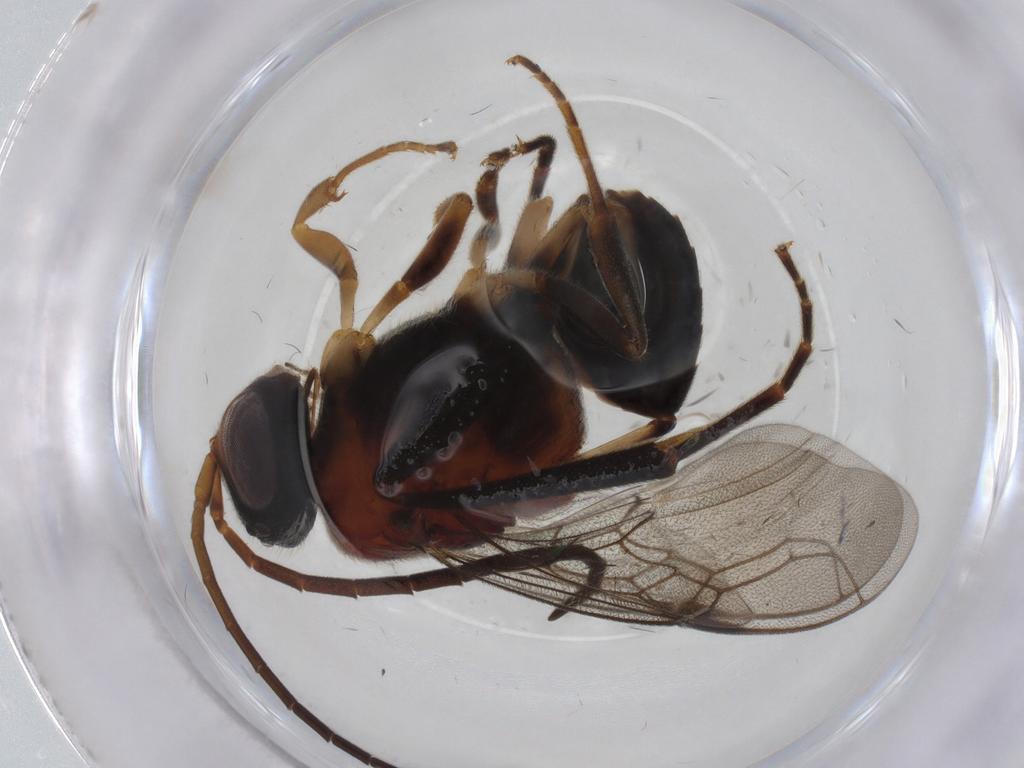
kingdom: Animalia
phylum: Arthropoda
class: Insecta
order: Hymenoptera
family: Evaniidae
